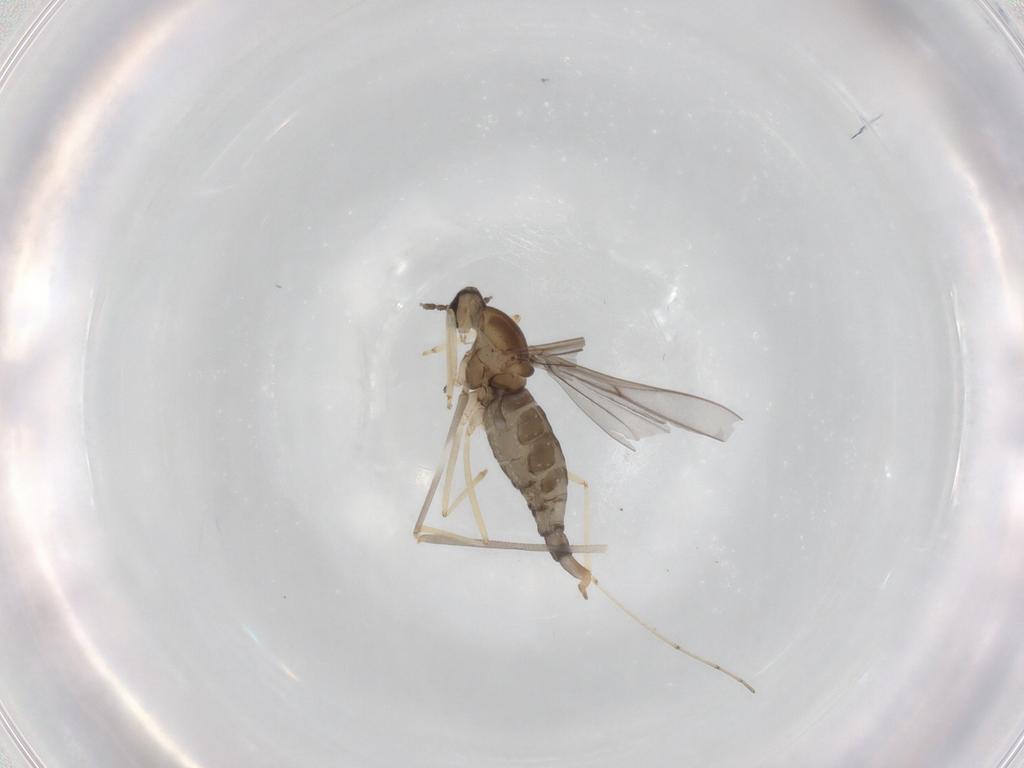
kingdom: Animalia
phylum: Arthropoda
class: Insecta
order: Diptera
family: Cecidomyiidae
